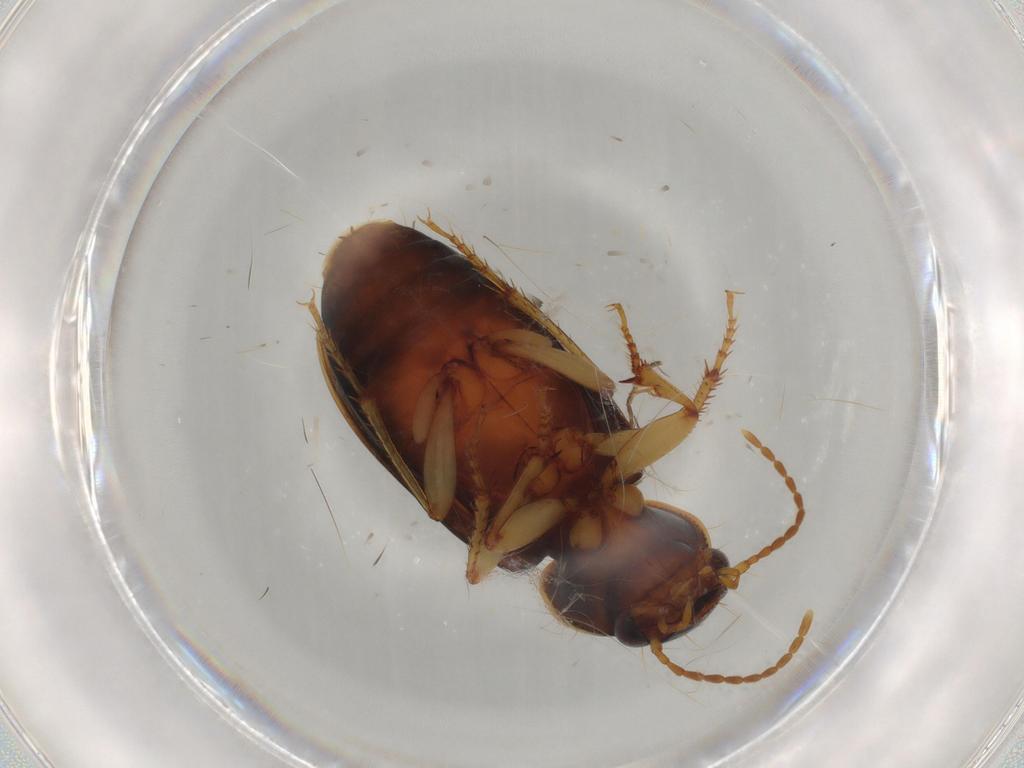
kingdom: Animalia
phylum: Arthropoda
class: Insecta
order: Coleoptera
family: Carabidae
